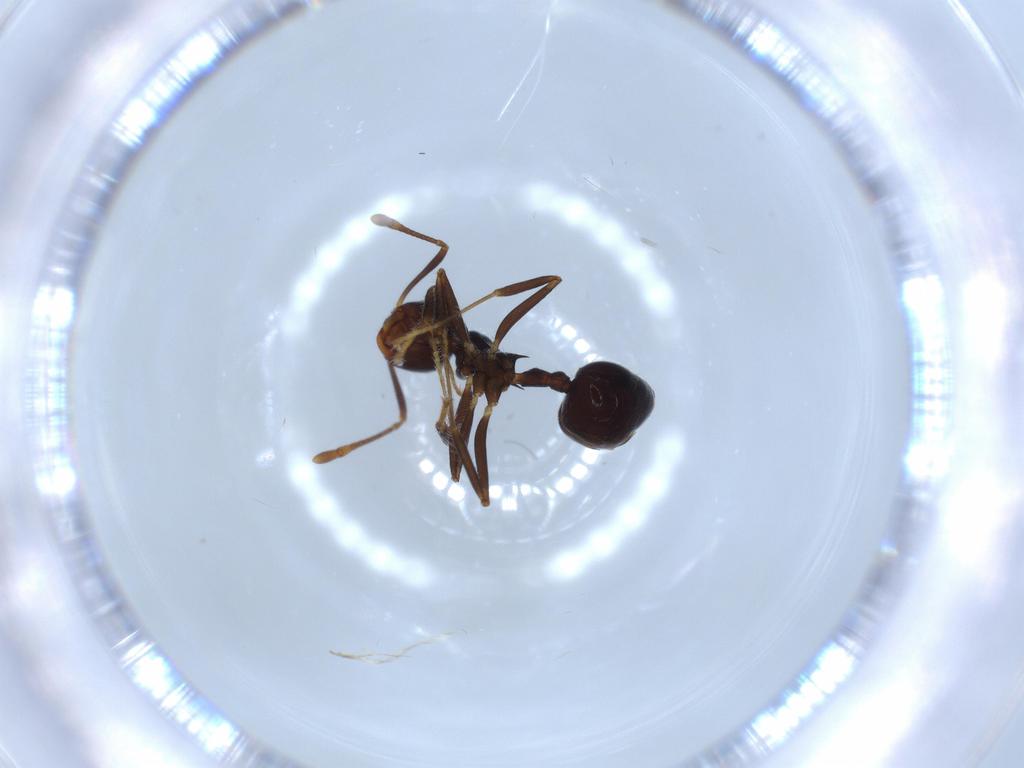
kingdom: Animalia
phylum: Arthropoda
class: Insecta
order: Hymenoptera
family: Formicidae
